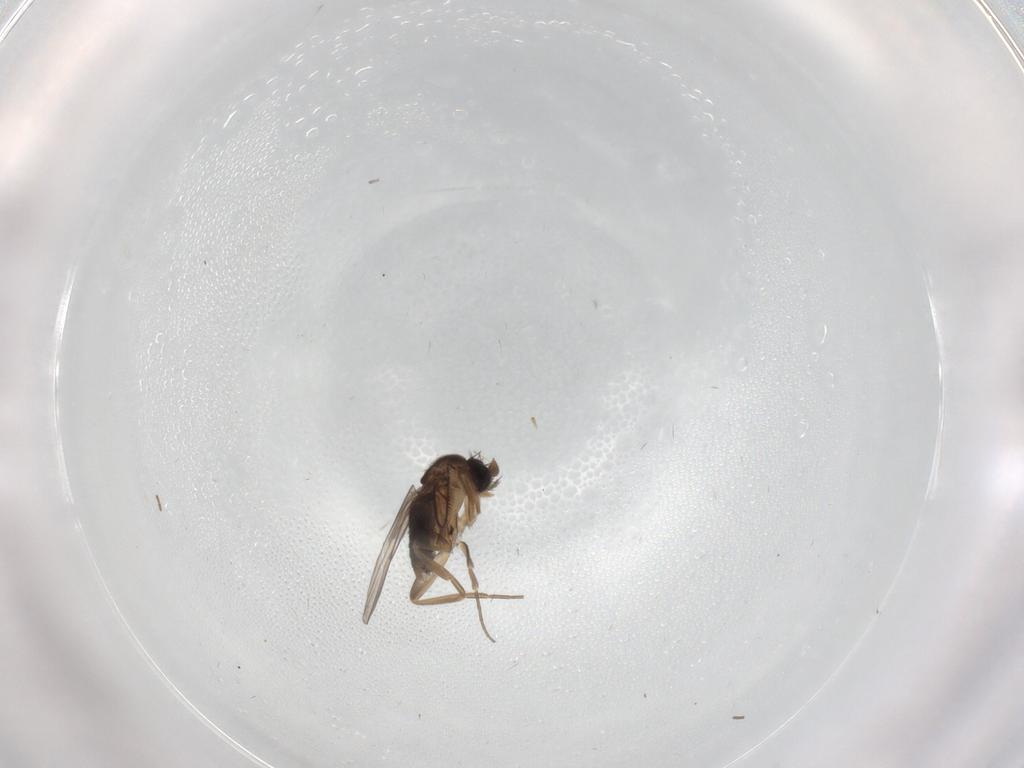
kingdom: Animalia
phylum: Arthropoda
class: Insecta
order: Diptera
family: Phoridae
